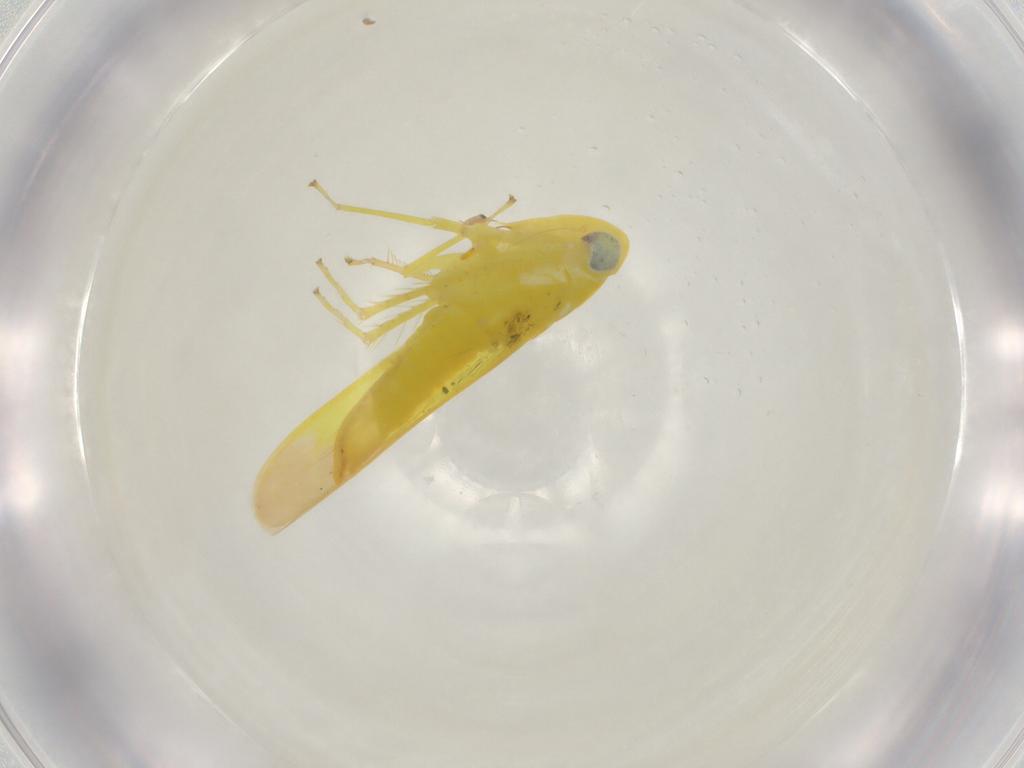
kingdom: Animalia
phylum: Arthropoda
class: Insecta
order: Hemiptera
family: Cicadellidae
